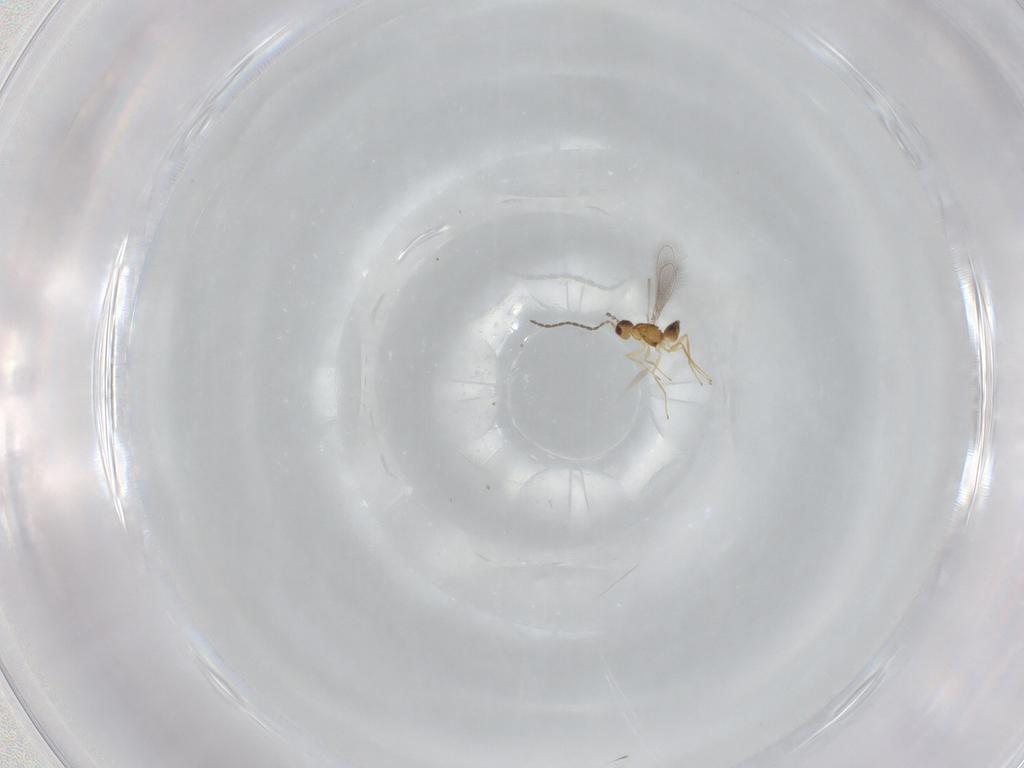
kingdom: Animalia
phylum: Arthropoda
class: Insecta
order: Hymenoptera
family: Mymaridae
